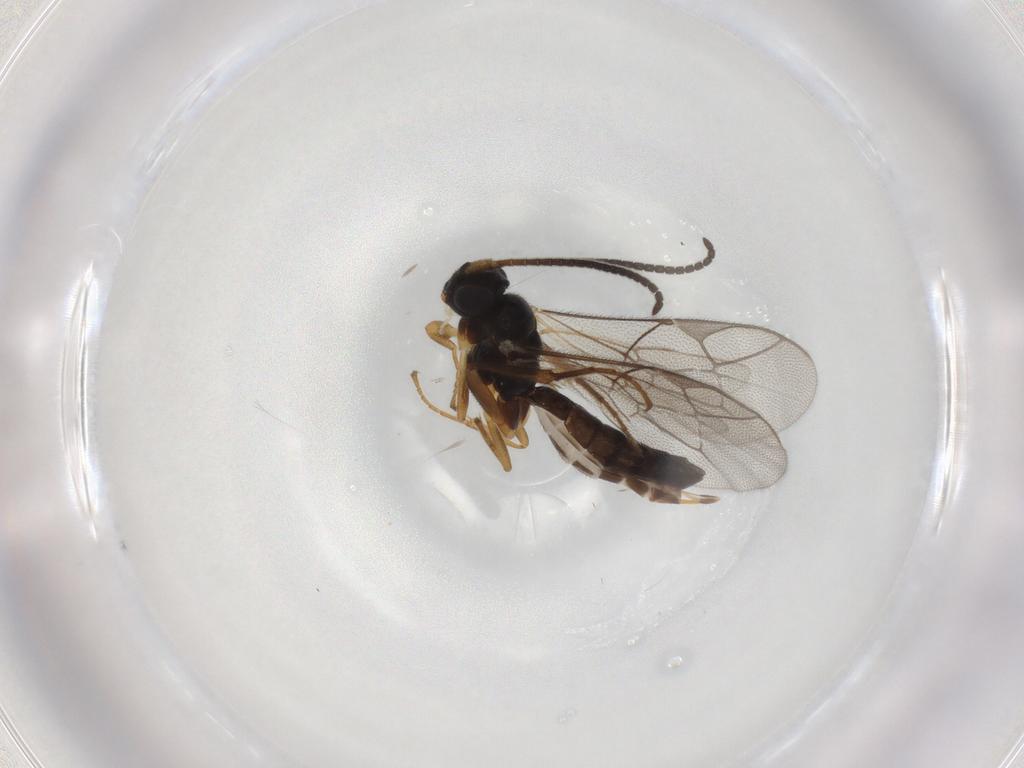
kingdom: Animalia
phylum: Arthropoda
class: Insecta
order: Hymenoptera
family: Ichneumonidae
